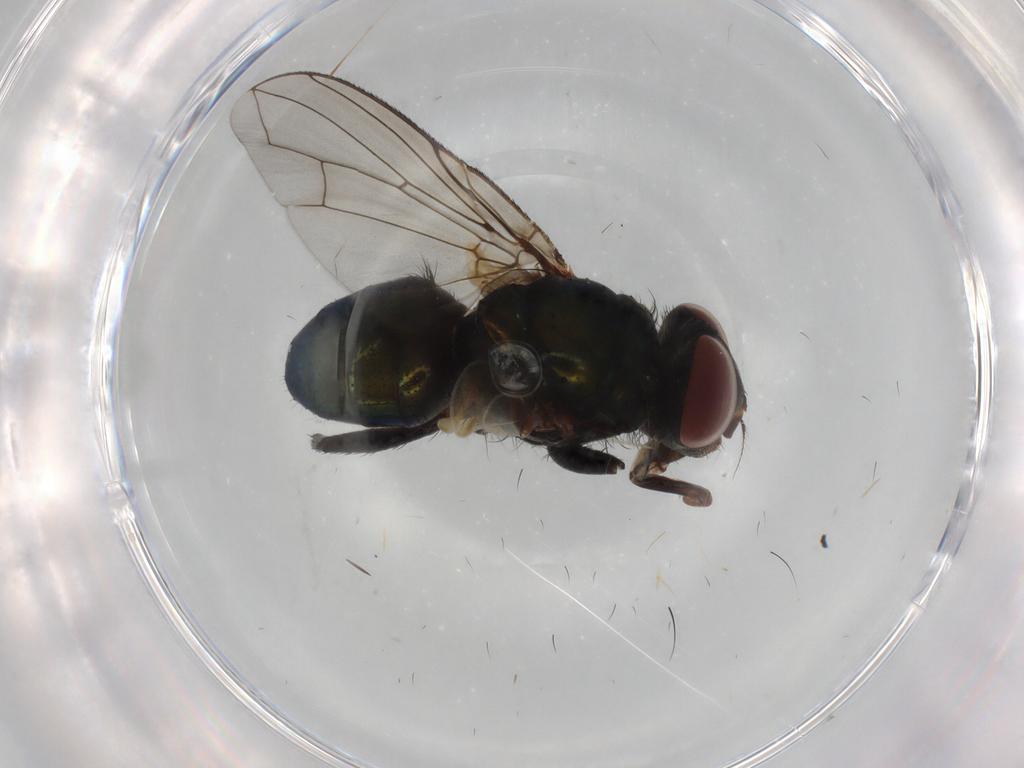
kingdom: Animalia
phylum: Arthropoda
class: Insecta
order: Diptera
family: Calliphoridae
